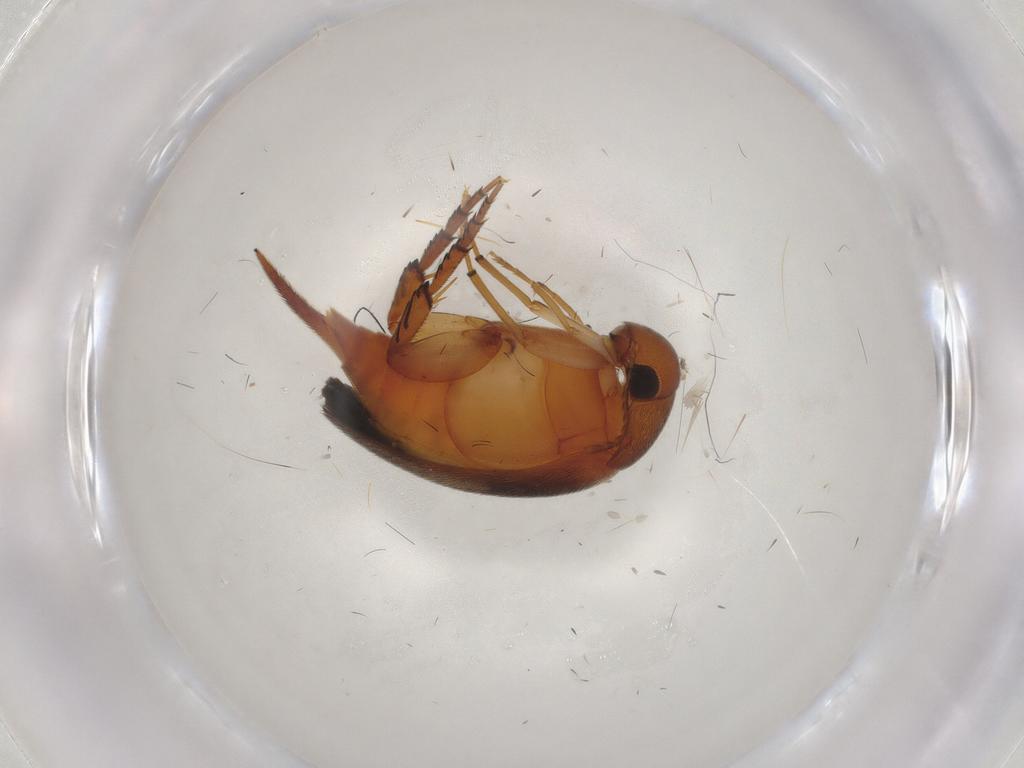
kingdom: Animalia
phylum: Arthropoda
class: Insecta
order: Coleoptera
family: Mordellidae
